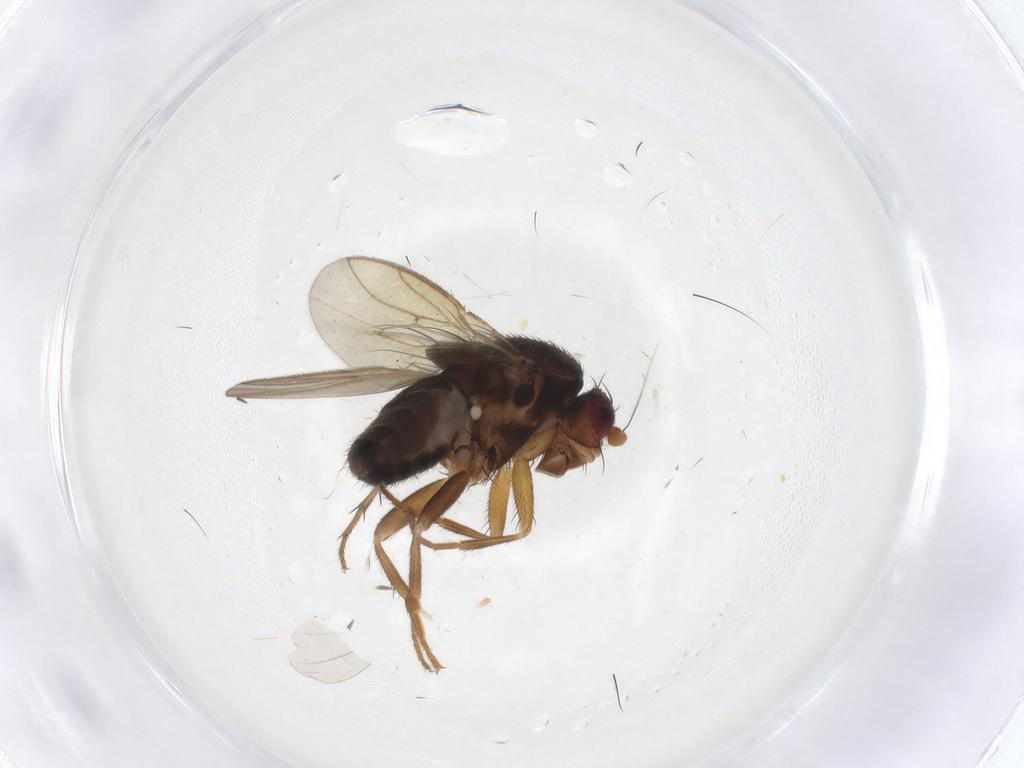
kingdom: Animalia
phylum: Arthropoda
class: Insecta
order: Diptera
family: Sphaeroceridae
